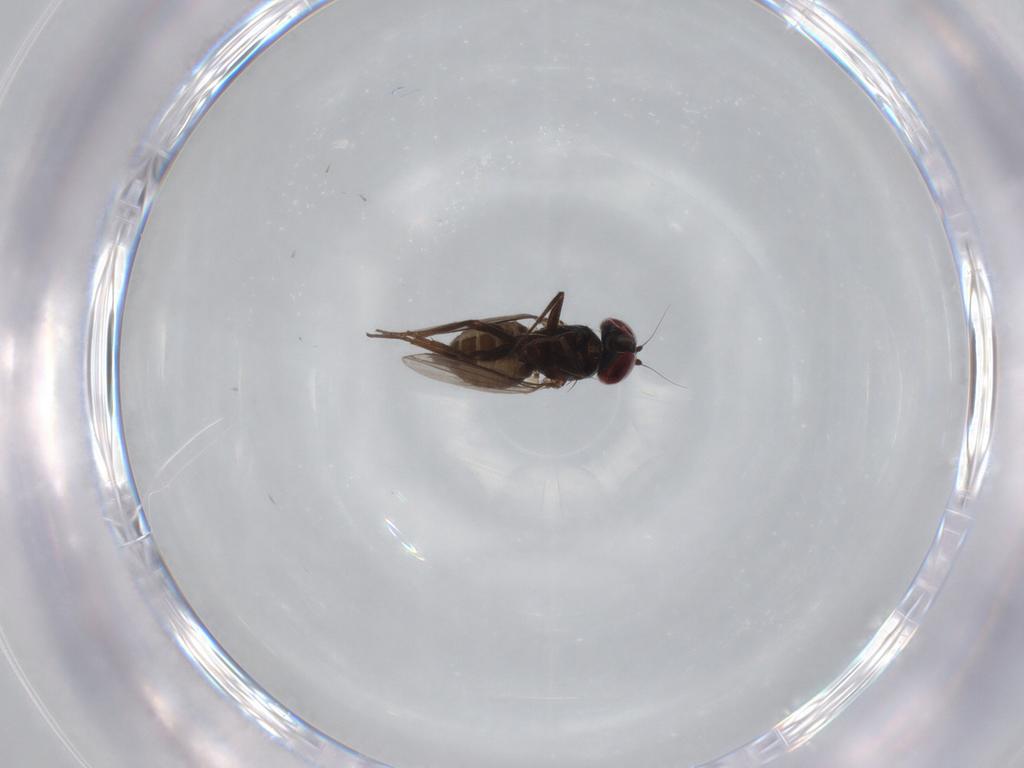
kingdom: Animalia
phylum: Arthropoda
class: Insecta
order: Diptera
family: Dolichopodidae
